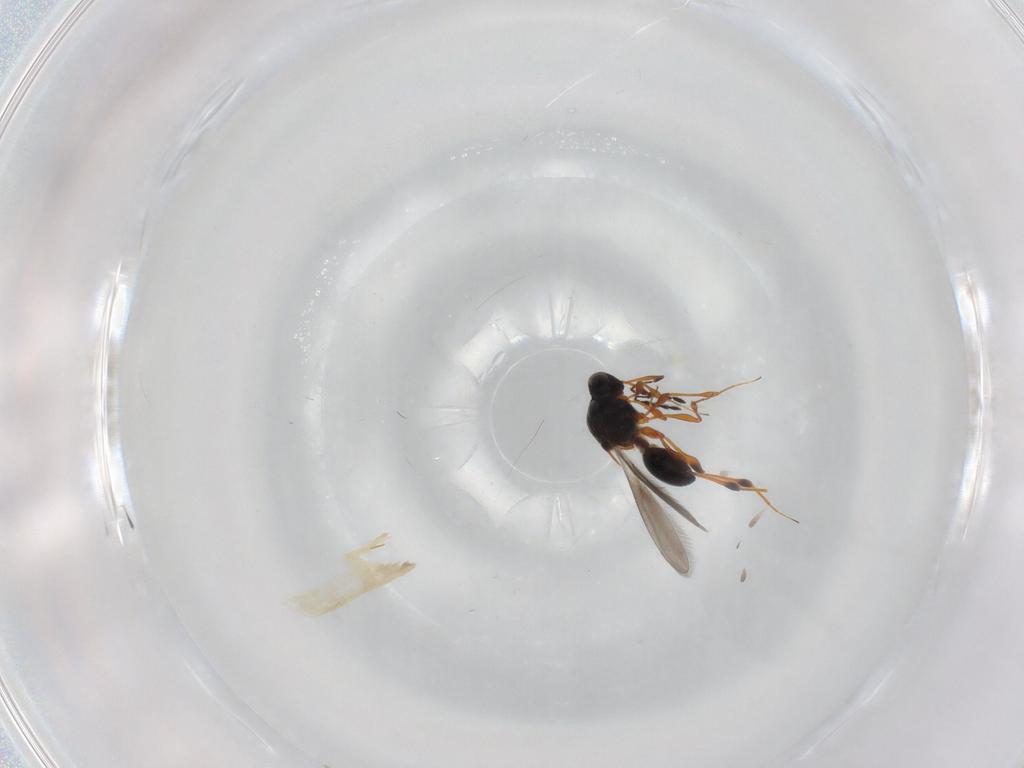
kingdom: Animalia
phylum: Arthropoda
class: Insecta
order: Hymenoptera
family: Platygastridae
